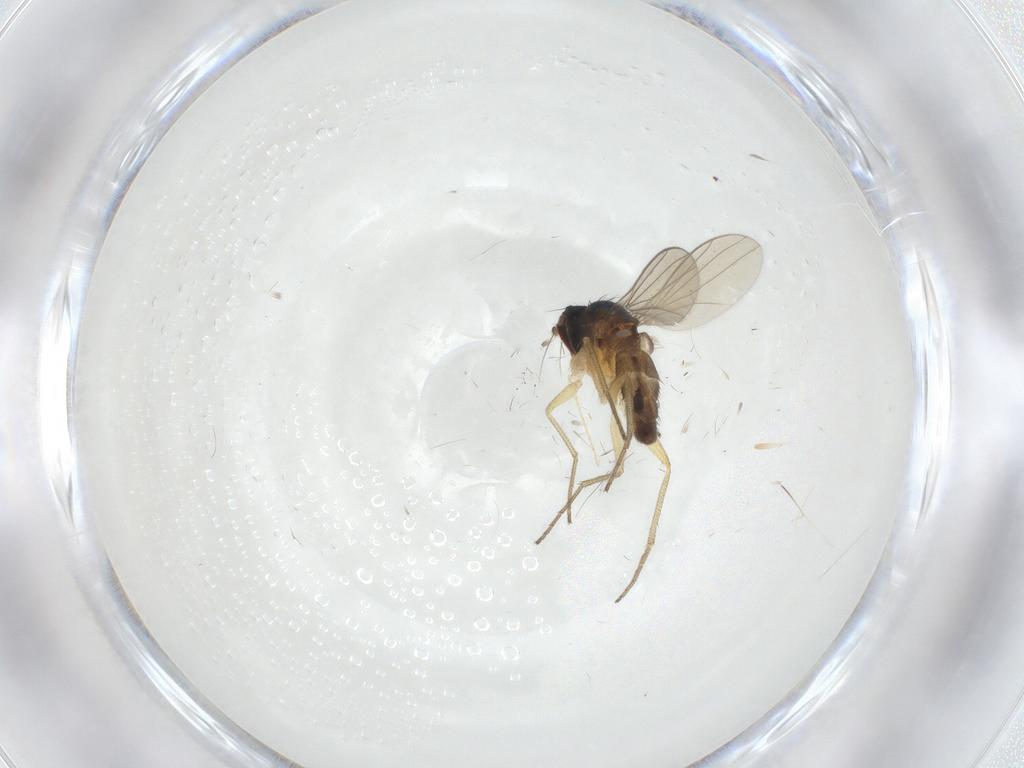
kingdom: Animalia
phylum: Arthropoda
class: Insecta
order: Diptera
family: Dolichopodidae
